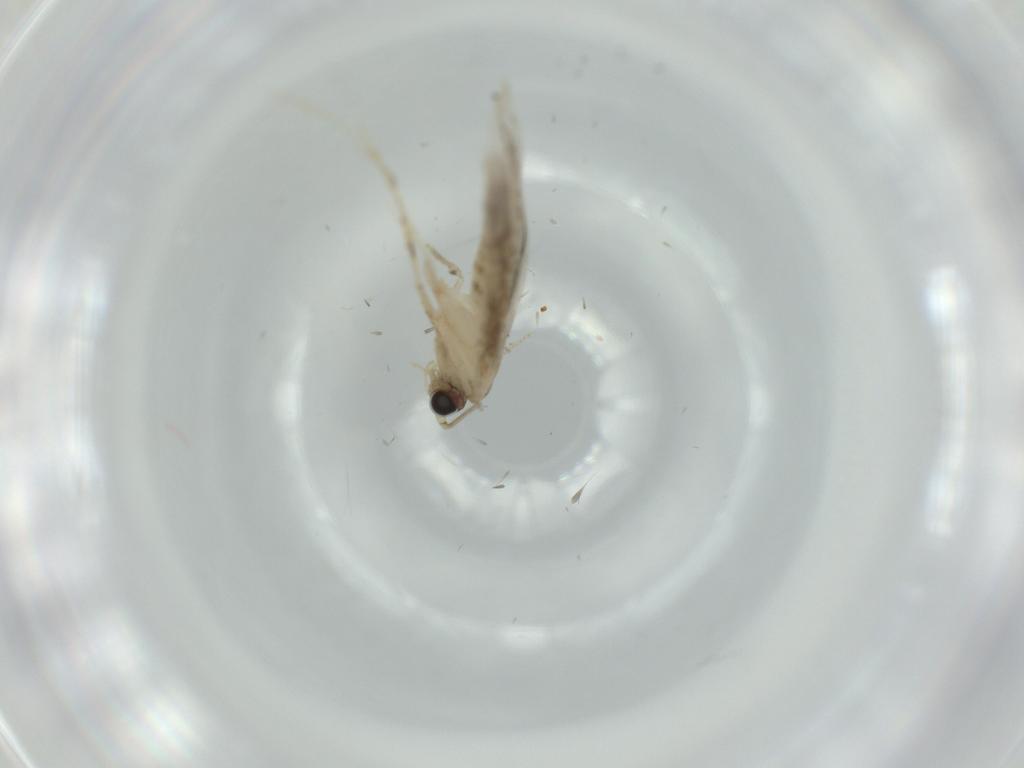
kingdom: Animalia
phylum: Arthropoda
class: Insecta
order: Lepidoptera
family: Tineidae
